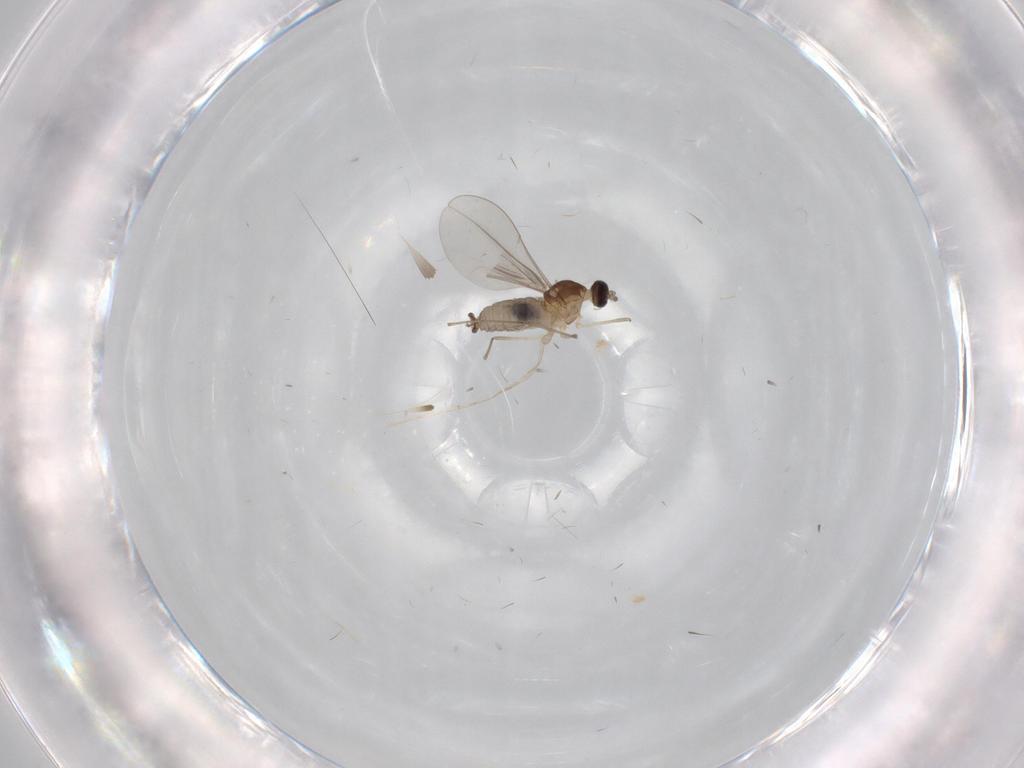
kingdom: Animalia
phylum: Arthropoda
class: Insecta
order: Diptera
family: Cecidomyiidae
